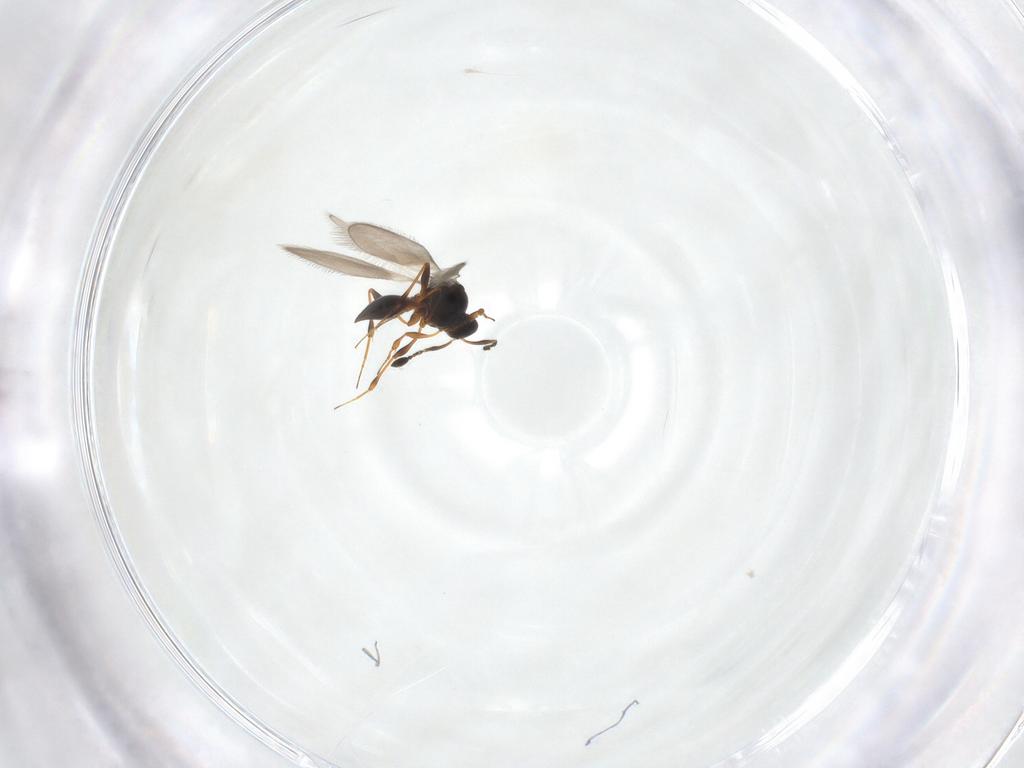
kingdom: Animalia
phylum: Arthropoda
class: Insecta
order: Hymenoptera
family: Platygastridae
